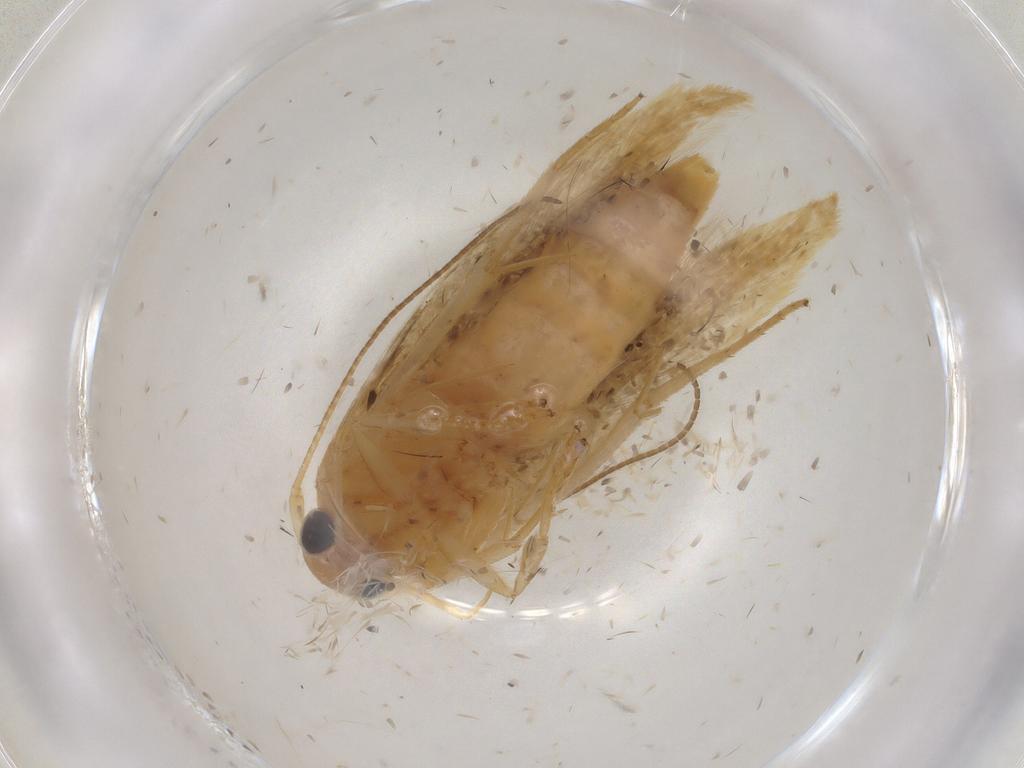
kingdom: Animalia
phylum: Arthropoda
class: Insecta
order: Lepidoptera
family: Stathmopodidae
